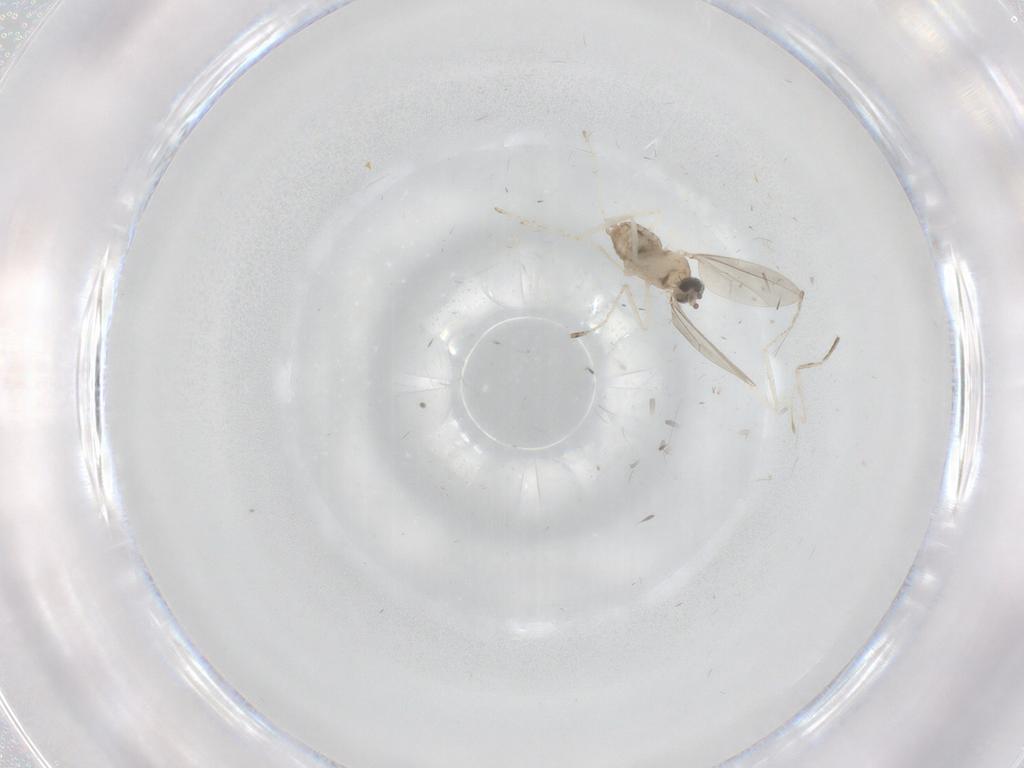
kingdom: Animalia
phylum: Arthropoda
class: Insecta
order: Diptera
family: Cecidomyiidae
